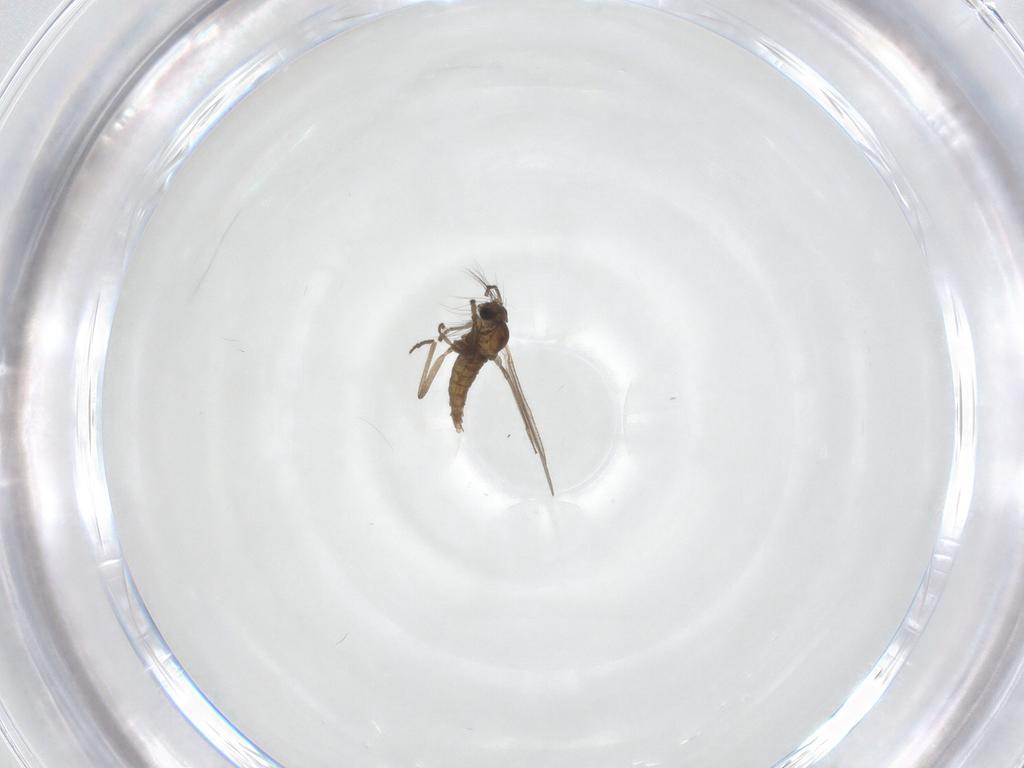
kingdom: Animalia
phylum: Arthropoda
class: Insecta
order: Diptera
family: Cecidomyiidae
